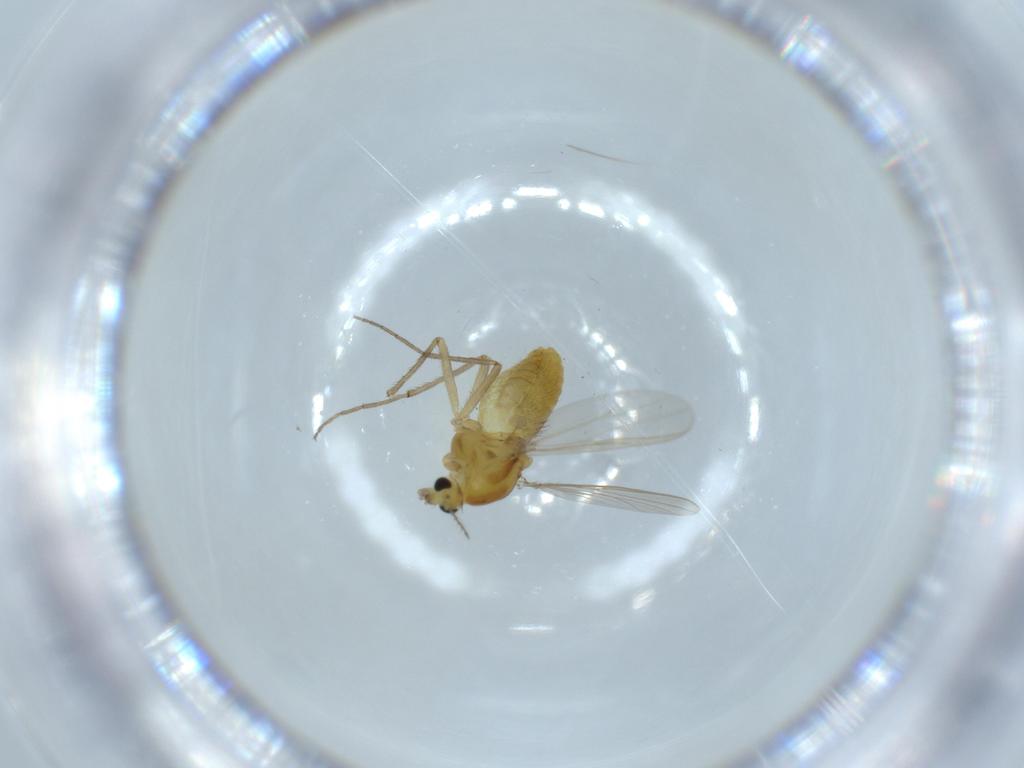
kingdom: Animalia
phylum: Arthropoda
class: Insecta
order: Diptera
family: Chironomidae
